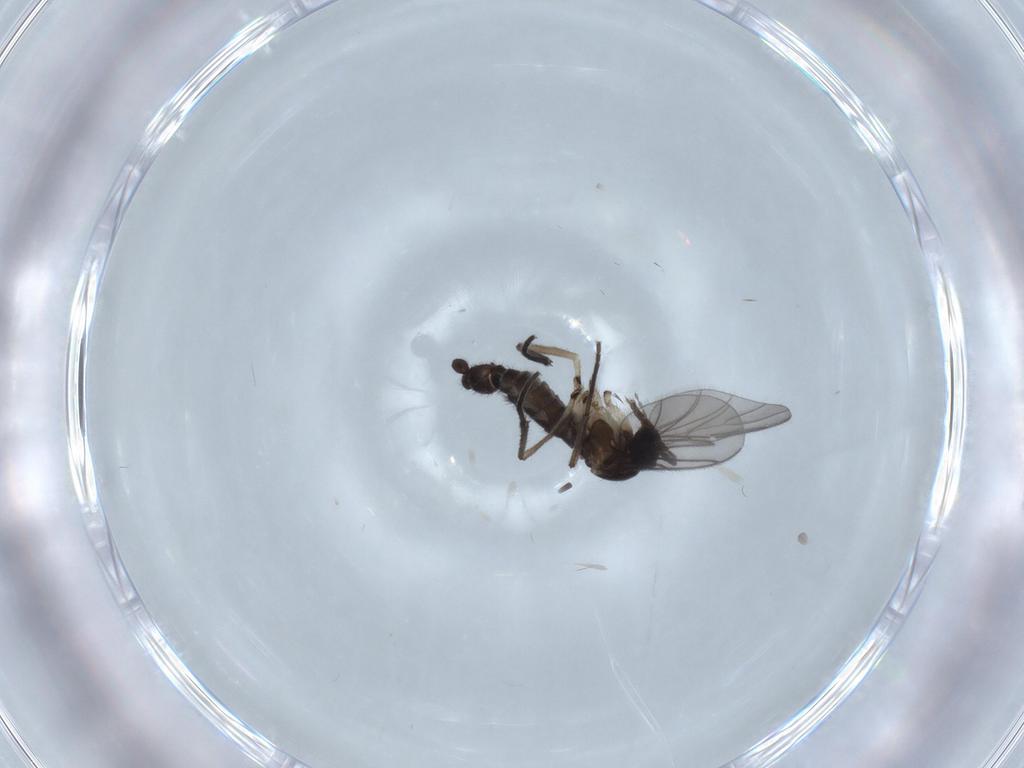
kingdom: Animalia
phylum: Arthropoda
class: Insecta
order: Diptera
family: Sciaridae
